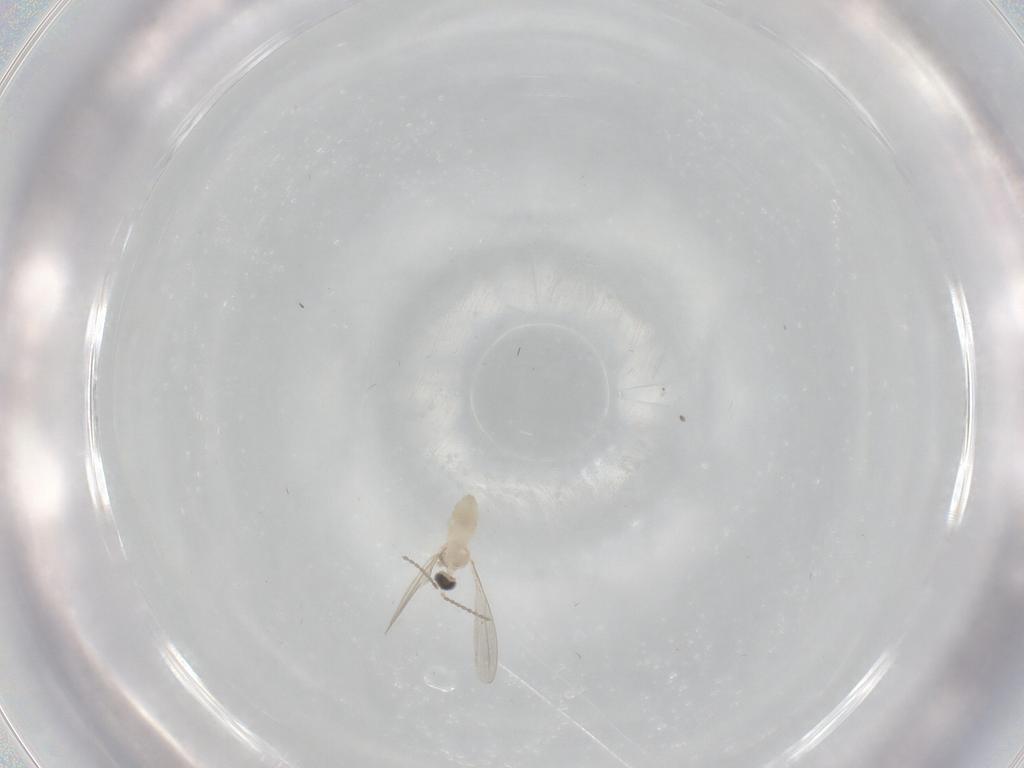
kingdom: Animalia
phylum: Arthropoda
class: Insecta
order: Diptera
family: Cecidomyiidae
